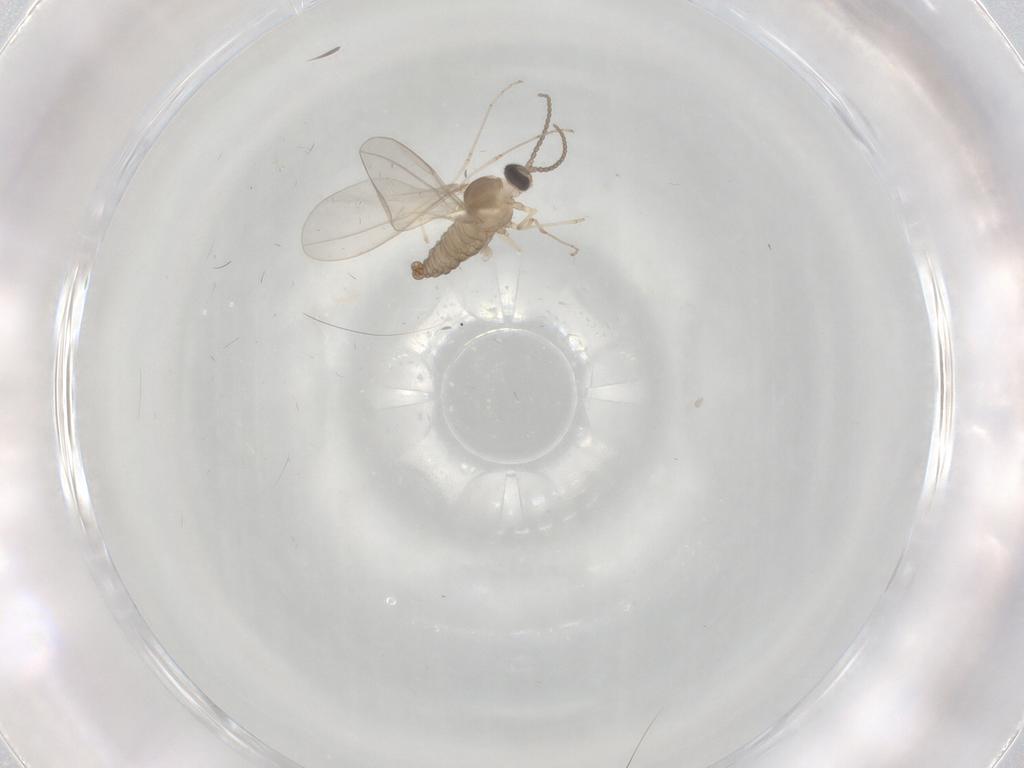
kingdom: Animalia
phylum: Arthropoda
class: Insecta
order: Diptera
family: Cecidomyiidae
